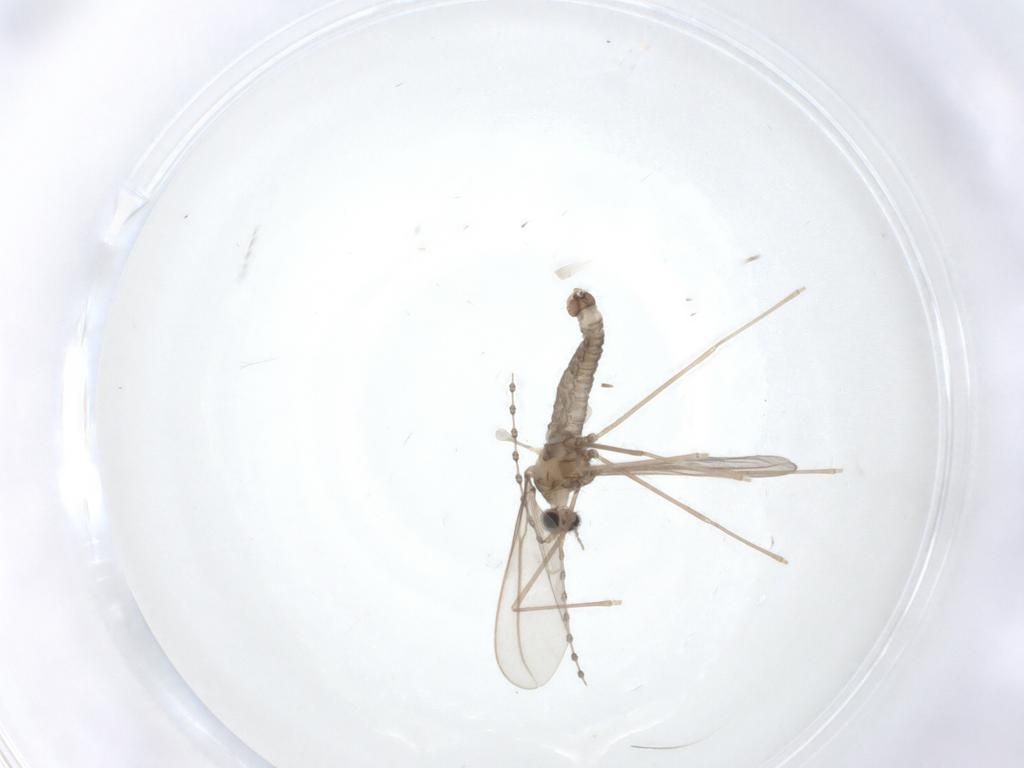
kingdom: Animalia
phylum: Arthropoda
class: Insecta
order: Diptera
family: Cecidomyiidae
